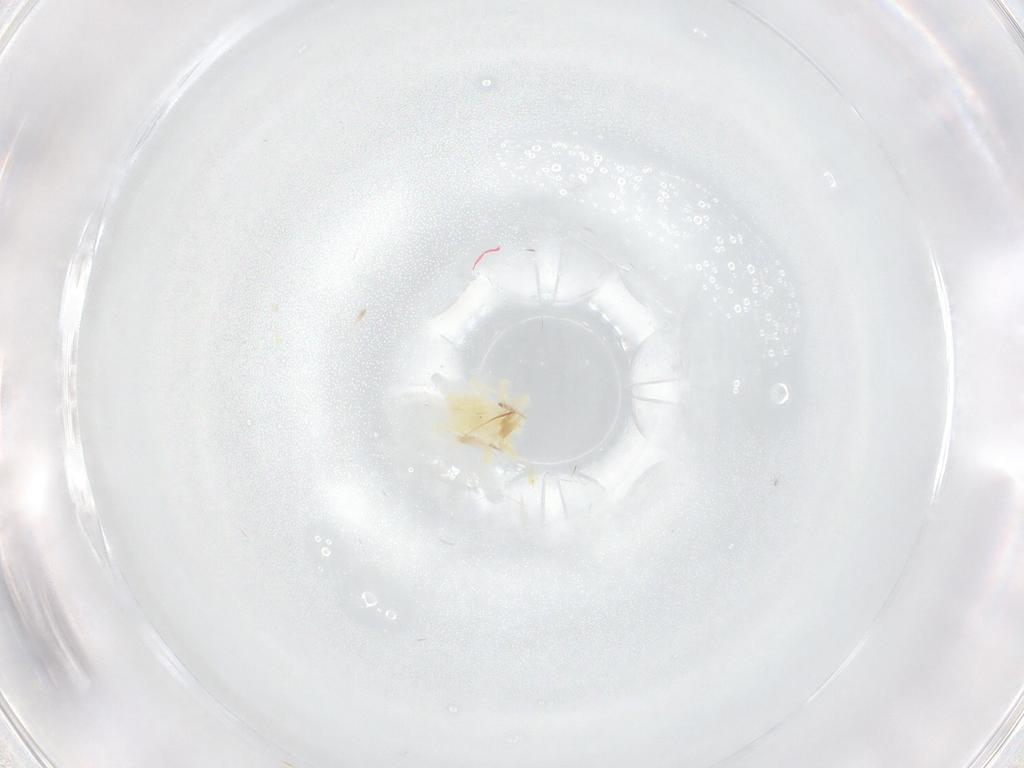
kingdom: Animalia
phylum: Arthropoda
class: Arachnida
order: Trombidiformes
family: Anystidae
